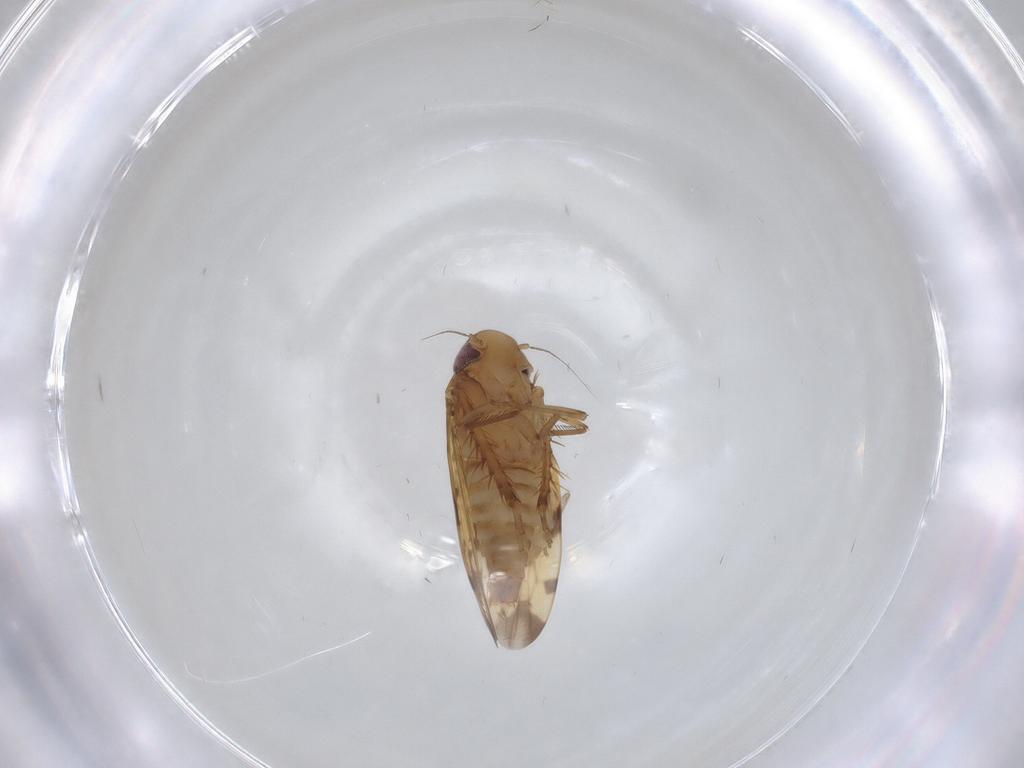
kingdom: Animalia
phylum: Arthropoda
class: Insecta
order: Hemiptera
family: Cicadellidae
